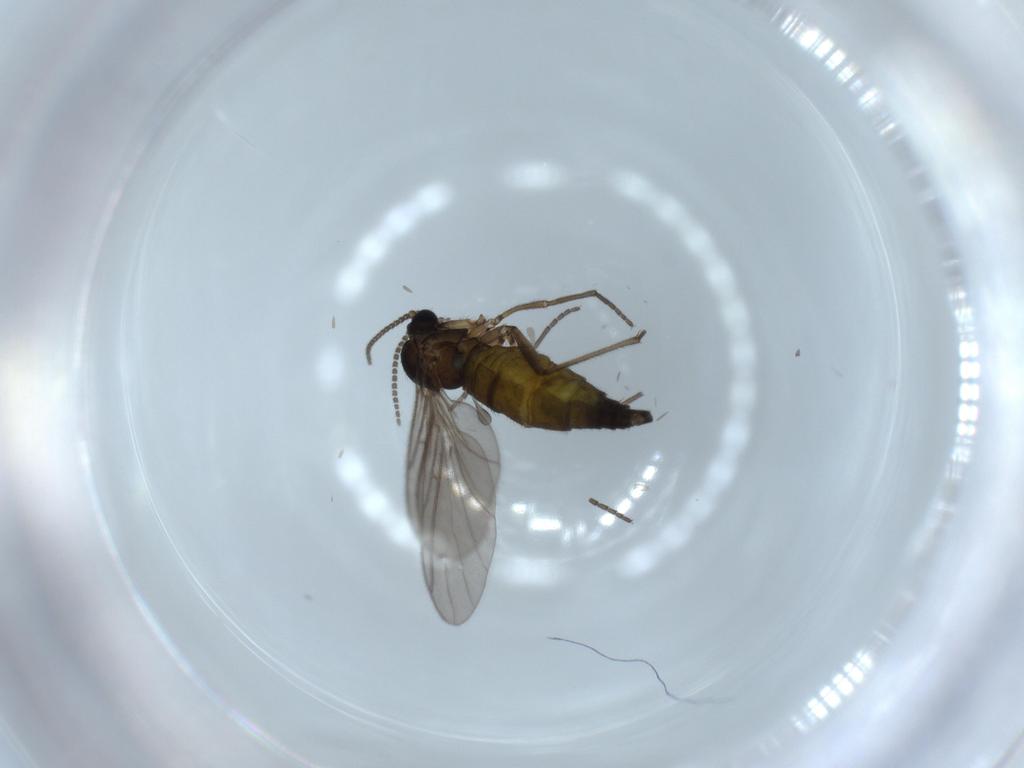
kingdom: Animalia
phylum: Arthropoda
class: Insecta
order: Diptera
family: Sciaridae
